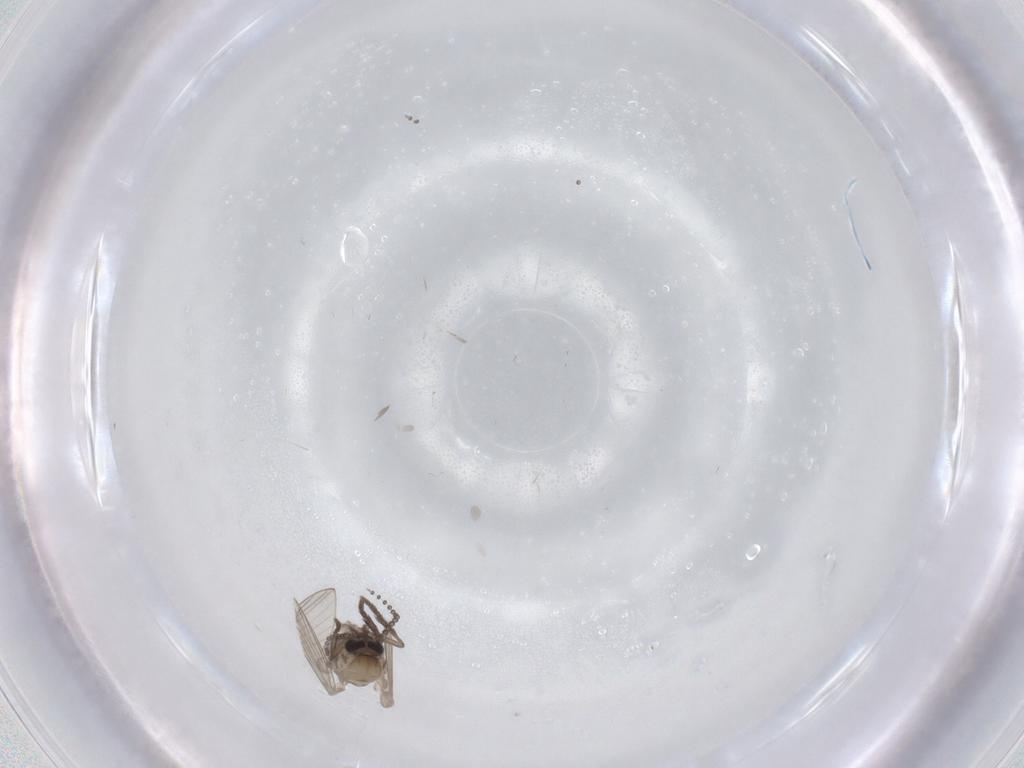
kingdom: Animalia
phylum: Arthropoda
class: Insecta
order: Diptera
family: Psychodidae
